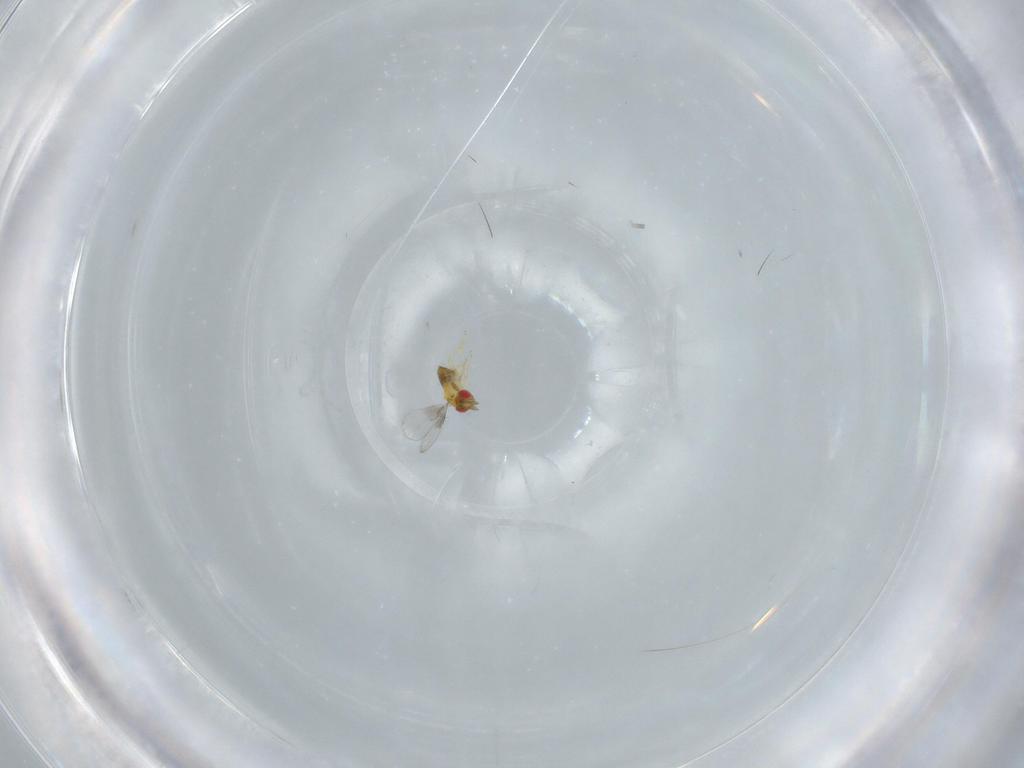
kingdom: Animalia
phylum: Arthropoda
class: Insecta
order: Hymenoptera
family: Trichogrammatidae
